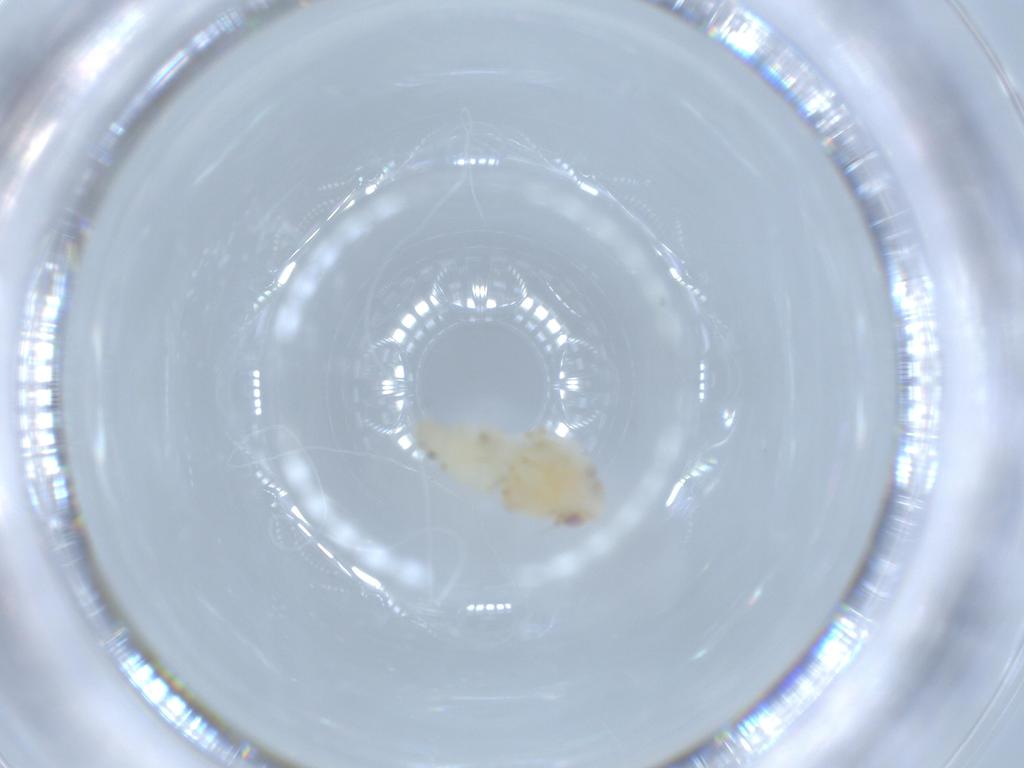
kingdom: Animalia
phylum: Arthropoda
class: Insecta
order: Hemiptera
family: Nogodinidae
